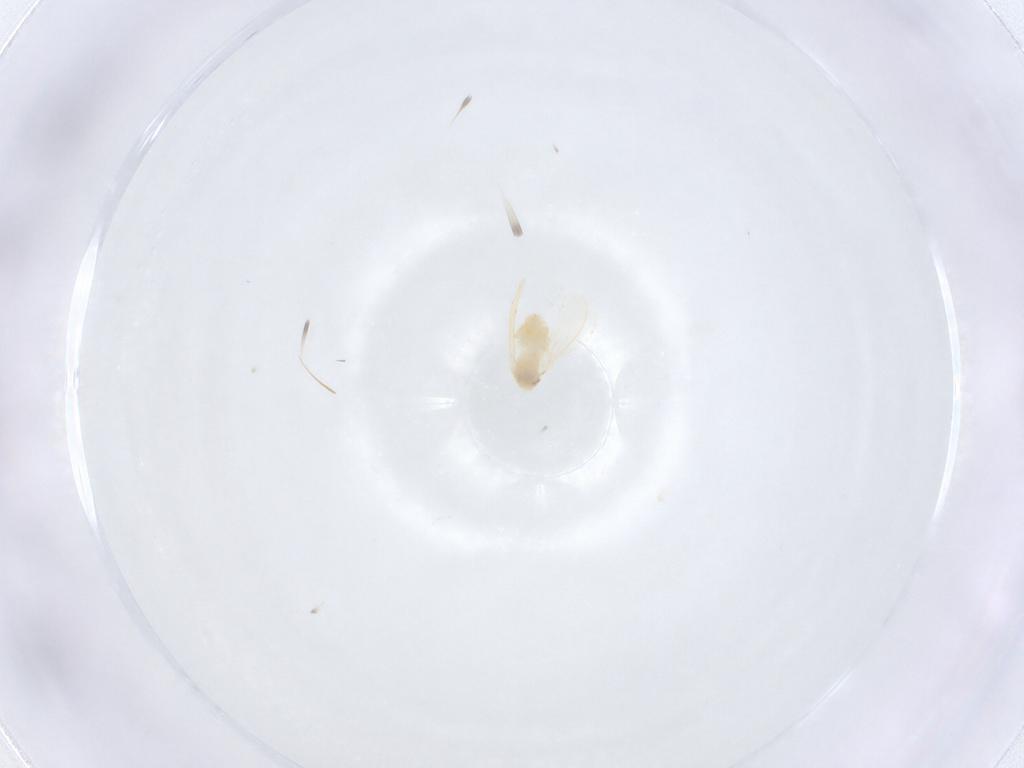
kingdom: Animalia
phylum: Arthropoda
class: Insecta
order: Hemiptera
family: Aleyrodidae
